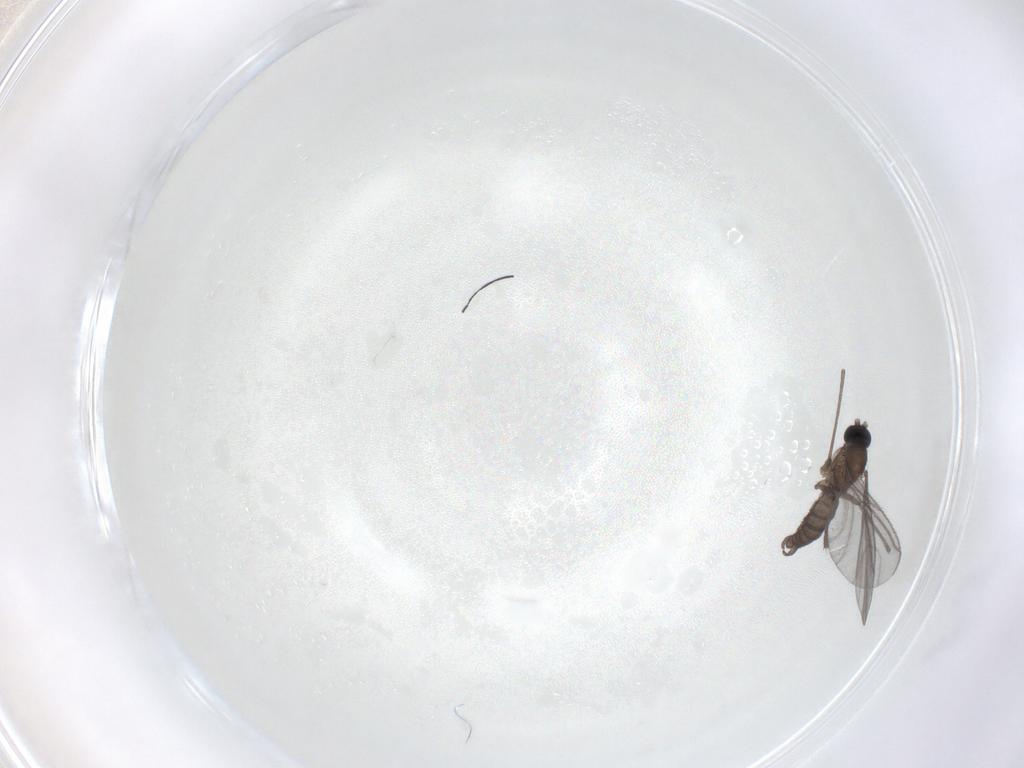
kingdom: Animalia
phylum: Arthropoda
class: Insecta
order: Diptera
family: Sciaridae
